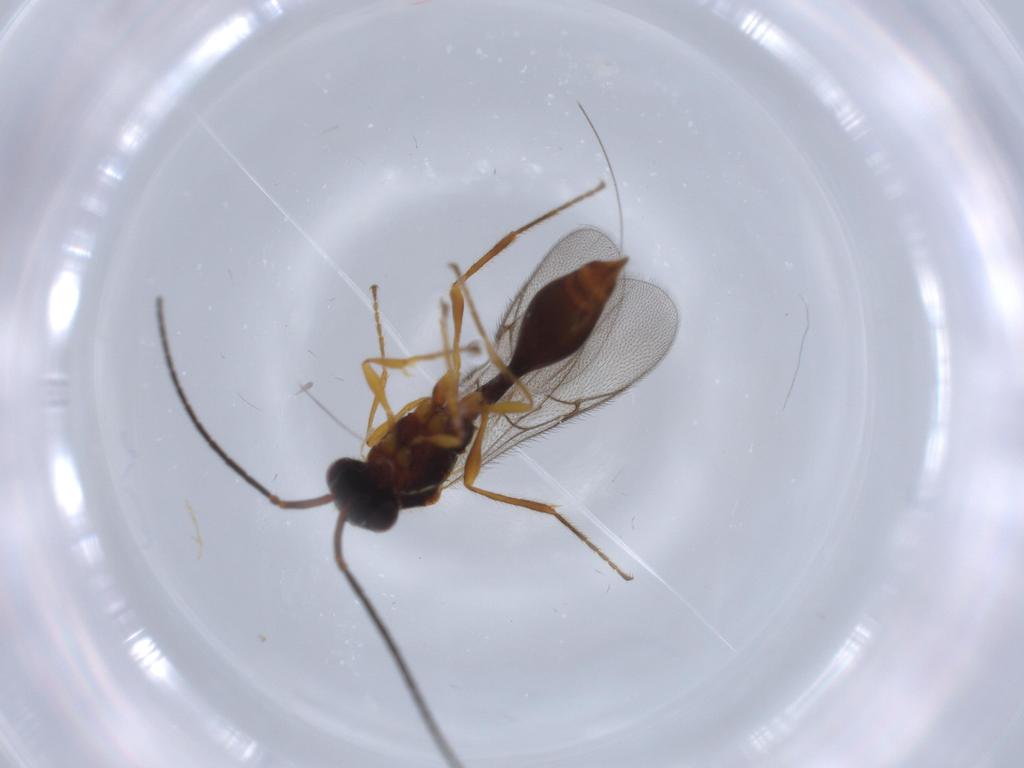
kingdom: Animalia
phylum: Arthropoda
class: Insecta
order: Hymenoptera
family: Diapriidae
